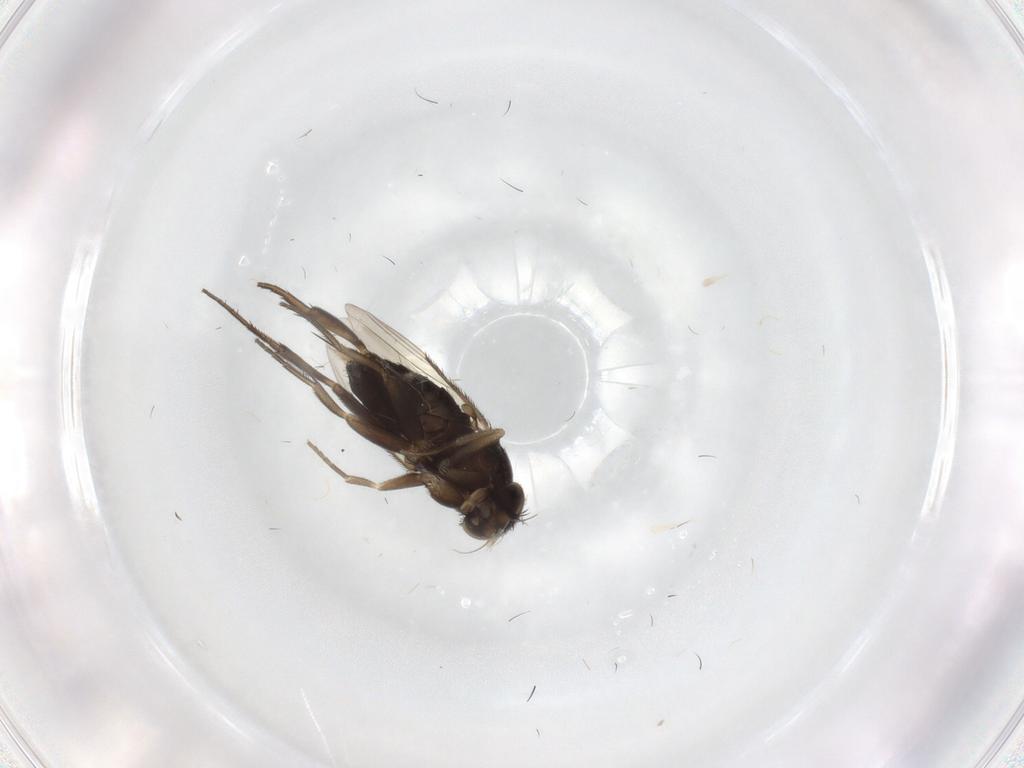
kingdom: Animalia
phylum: Arthropoda
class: Insecta
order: Diptera
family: Phoridae
